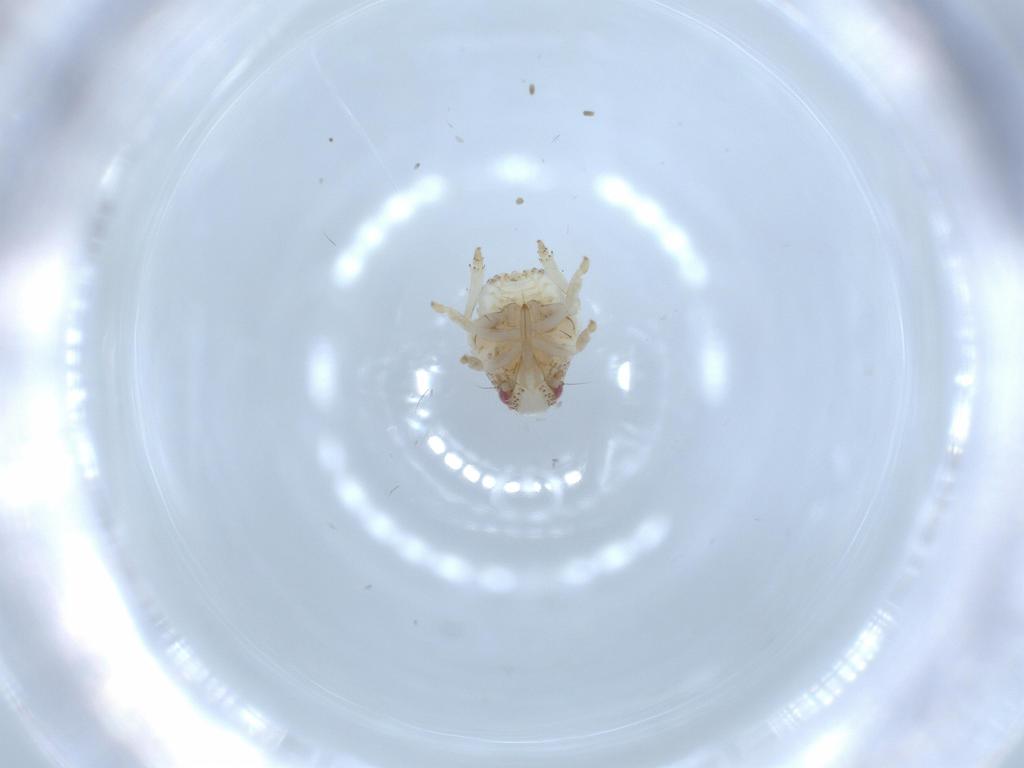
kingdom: Animalia
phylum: Arthropoda
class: Insecta
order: Hemiptera
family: Acanaloniidae
